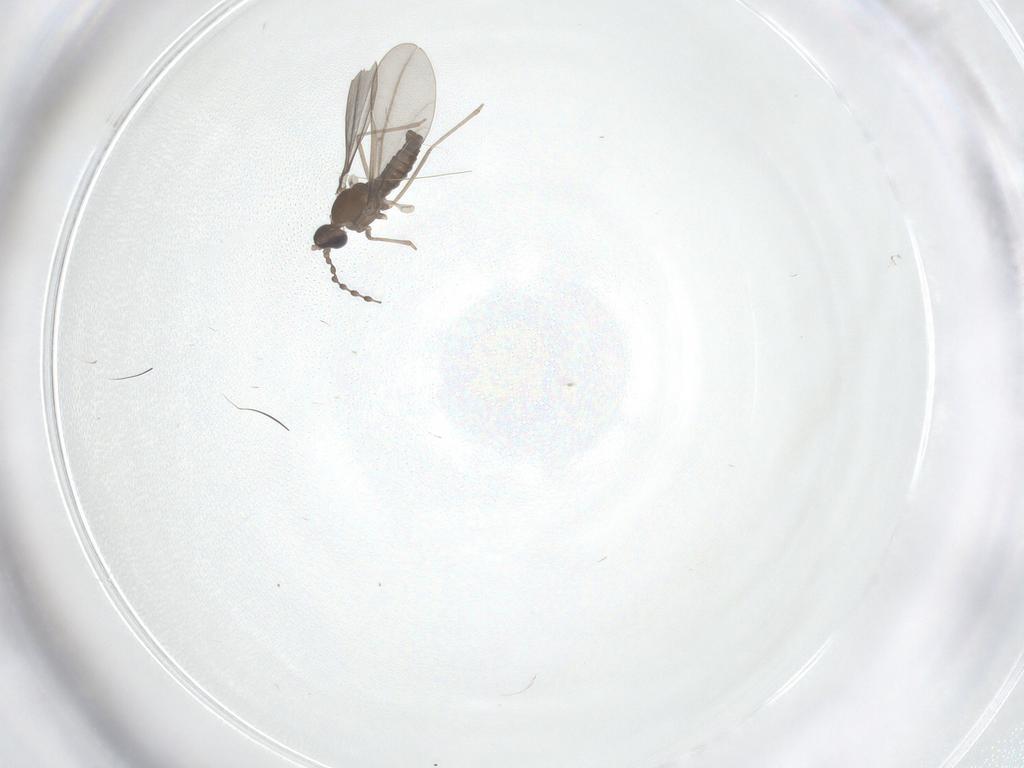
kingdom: Animalia
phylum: Arthropoda
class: Insecta
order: Diptera
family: Cecidomyiidae
